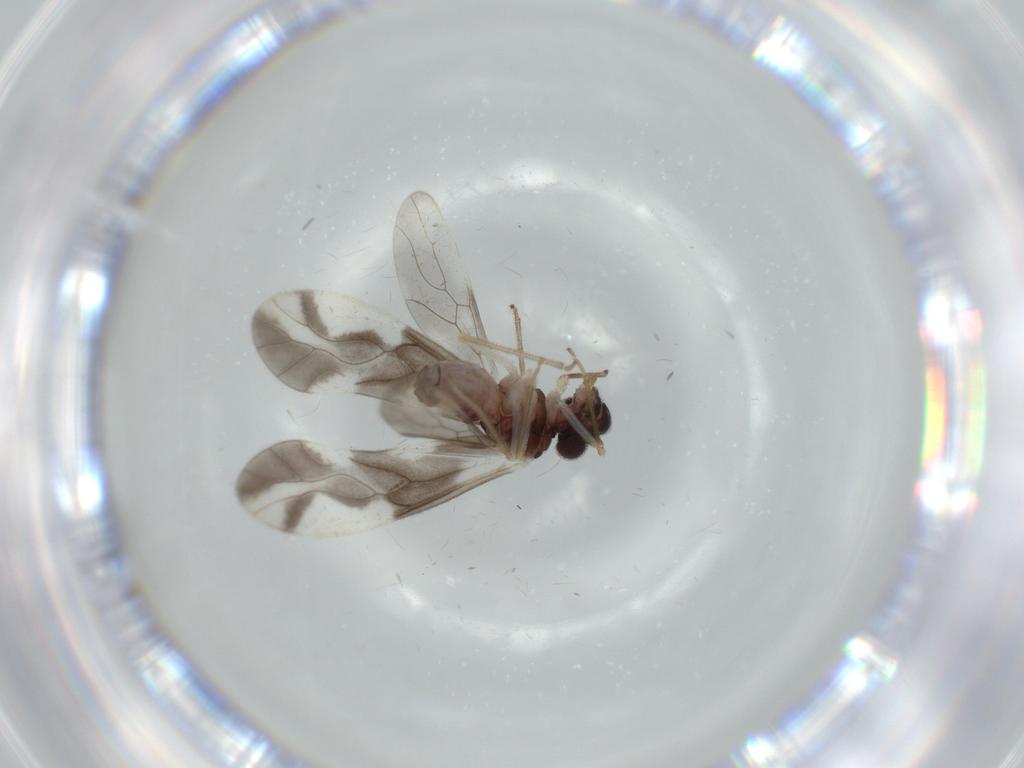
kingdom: Animalia
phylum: Arthropoda
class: Insecta
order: Psocodea
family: Caeciliusidae
